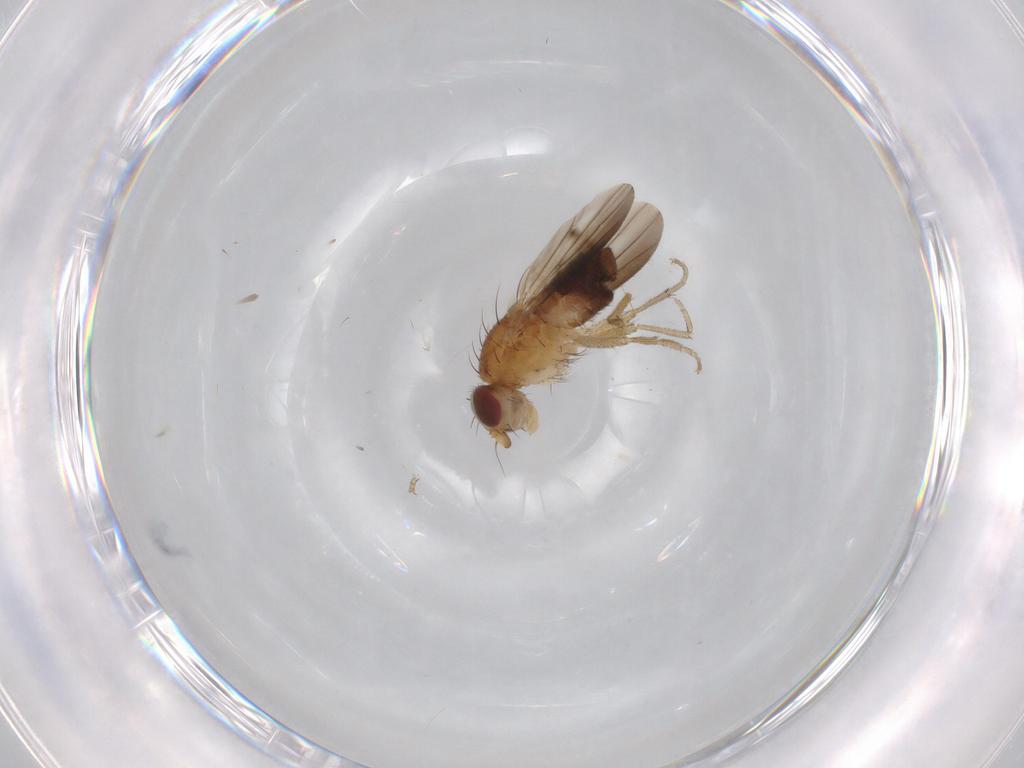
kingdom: Animalia
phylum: Arthropoda
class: Insecta
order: Diptera
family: Heleomyzidae
